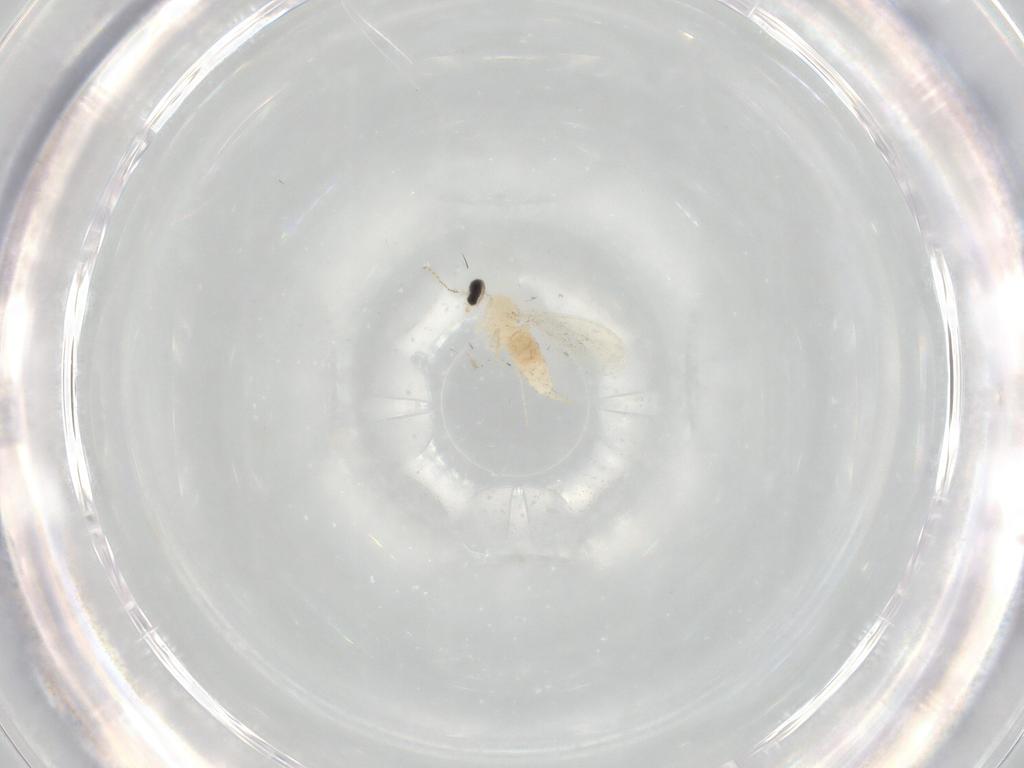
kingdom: Animalia
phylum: Arthropoda
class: Insecta
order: Diptera
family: Cecidomyiidae
